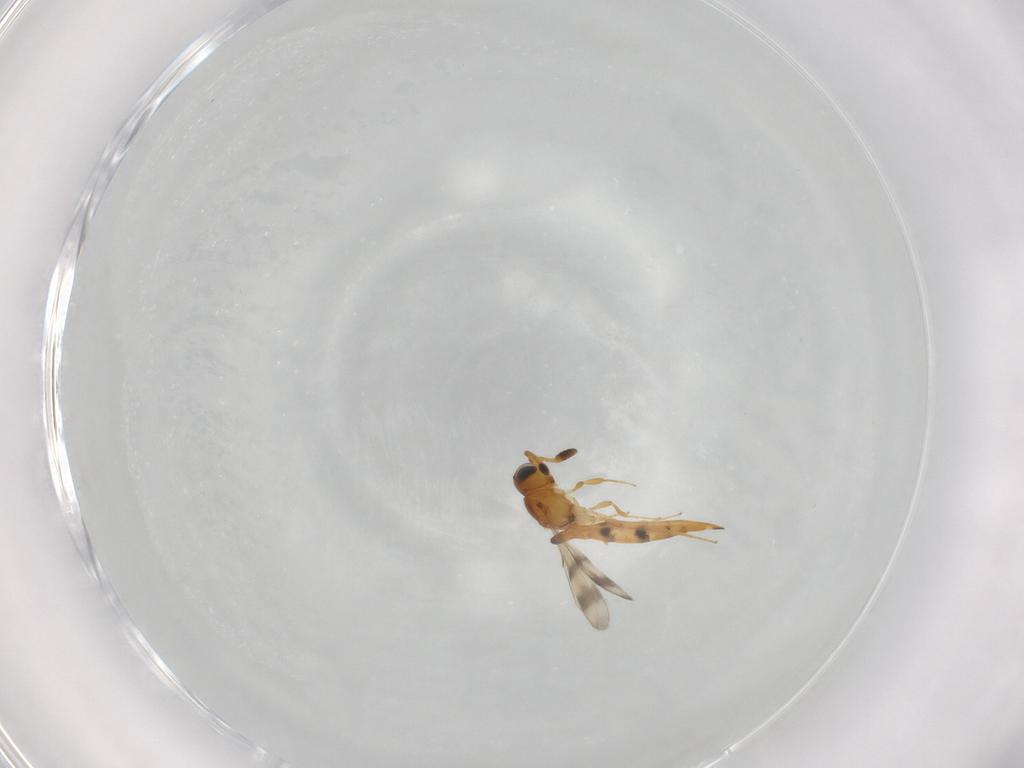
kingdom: Animalia
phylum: Arthropoda
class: Insecta
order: Hymenoptera
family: Scelionidae
